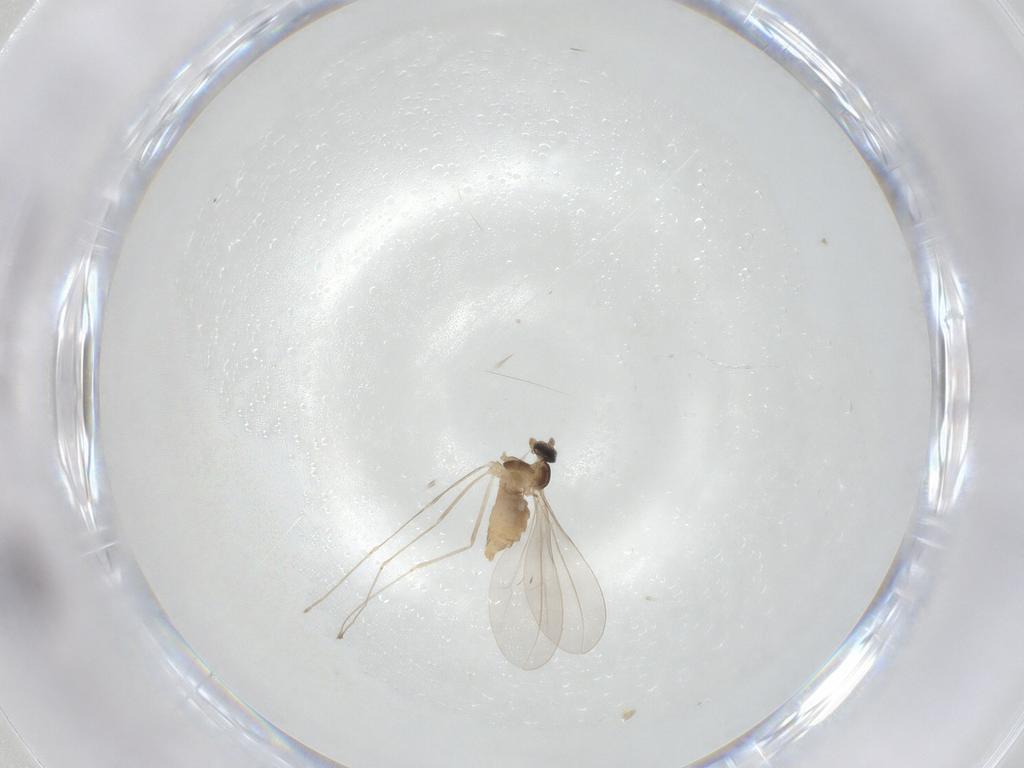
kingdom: Animalia
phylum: Arthropoda
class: Insecta
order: Diptera
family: Cecidomyiidae
